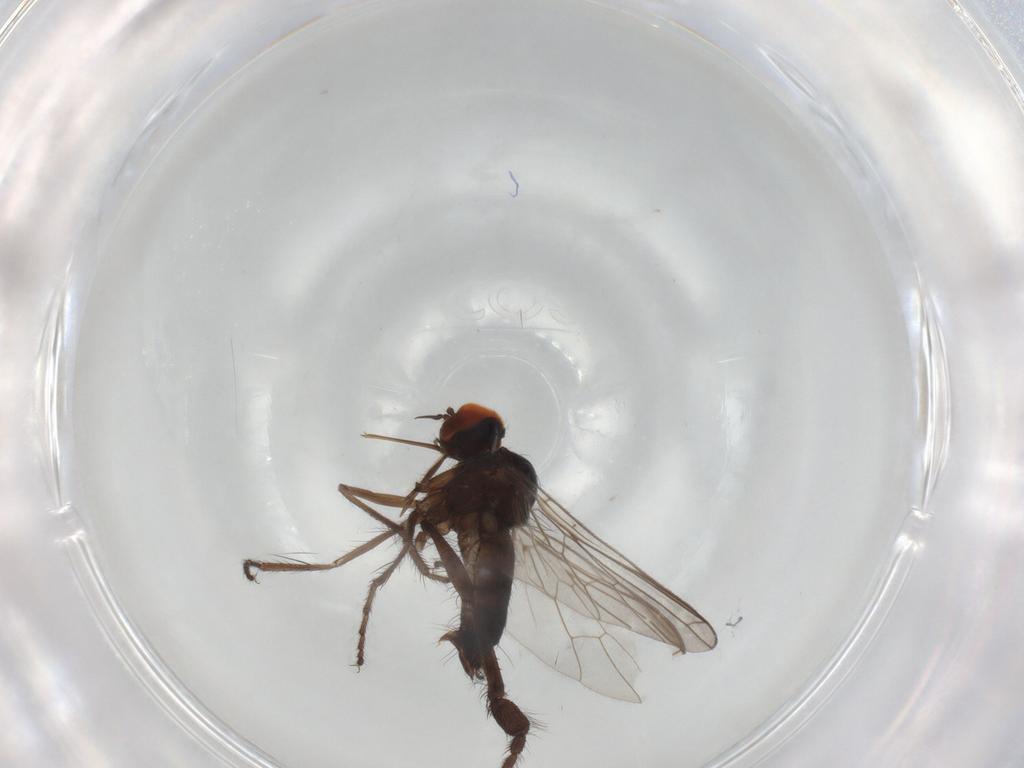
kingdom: Animalia
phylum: Arthropoda
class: Insecta
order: Diptera
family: Empididae
